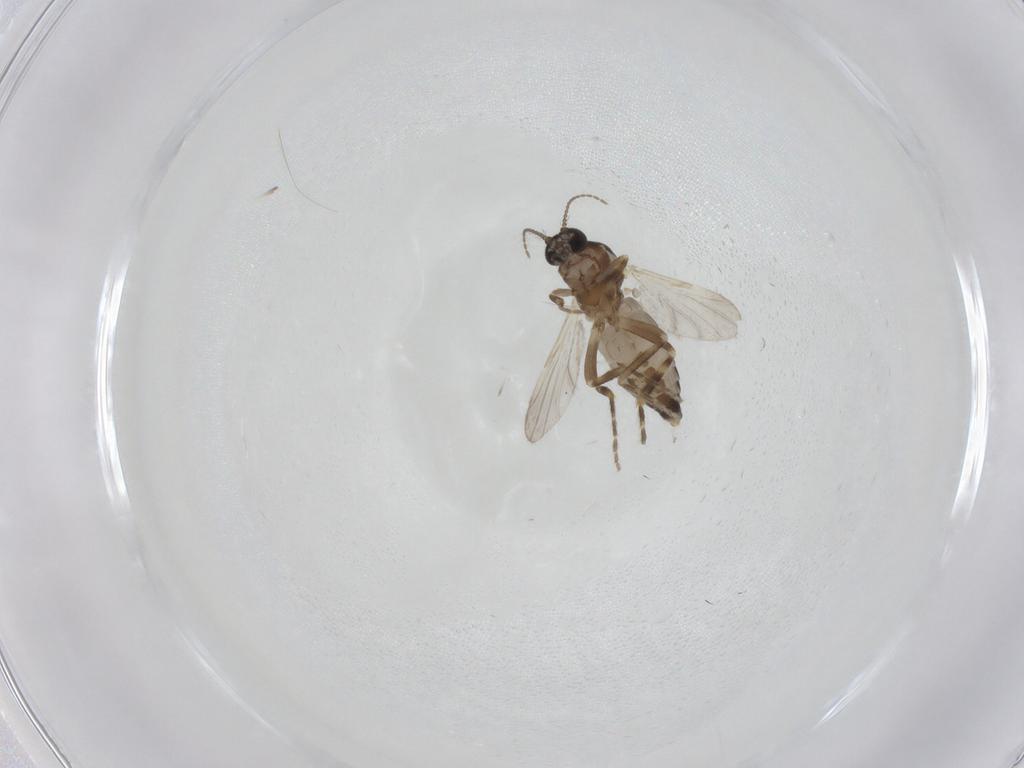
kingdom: Animalia
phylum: Arthropoda
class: Insecta
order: Diptera
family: Ceratopogonidae
